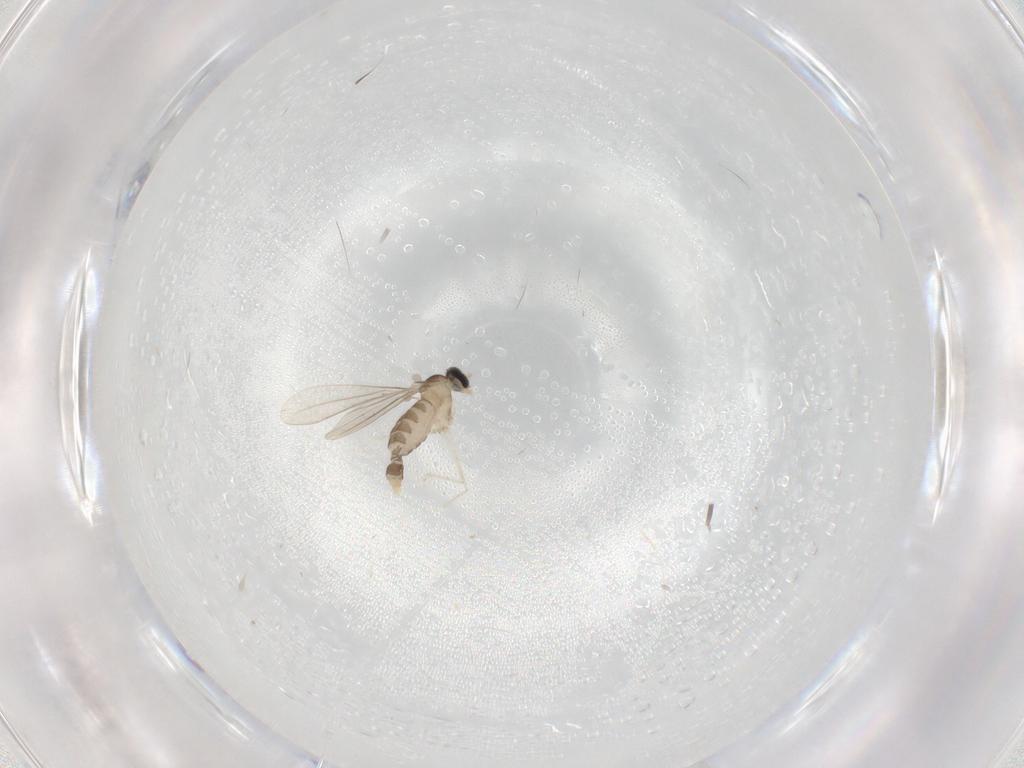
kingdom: Animalia
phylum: Arthropoda
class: Insecta
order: Diptera
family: Cecidomyiidae
